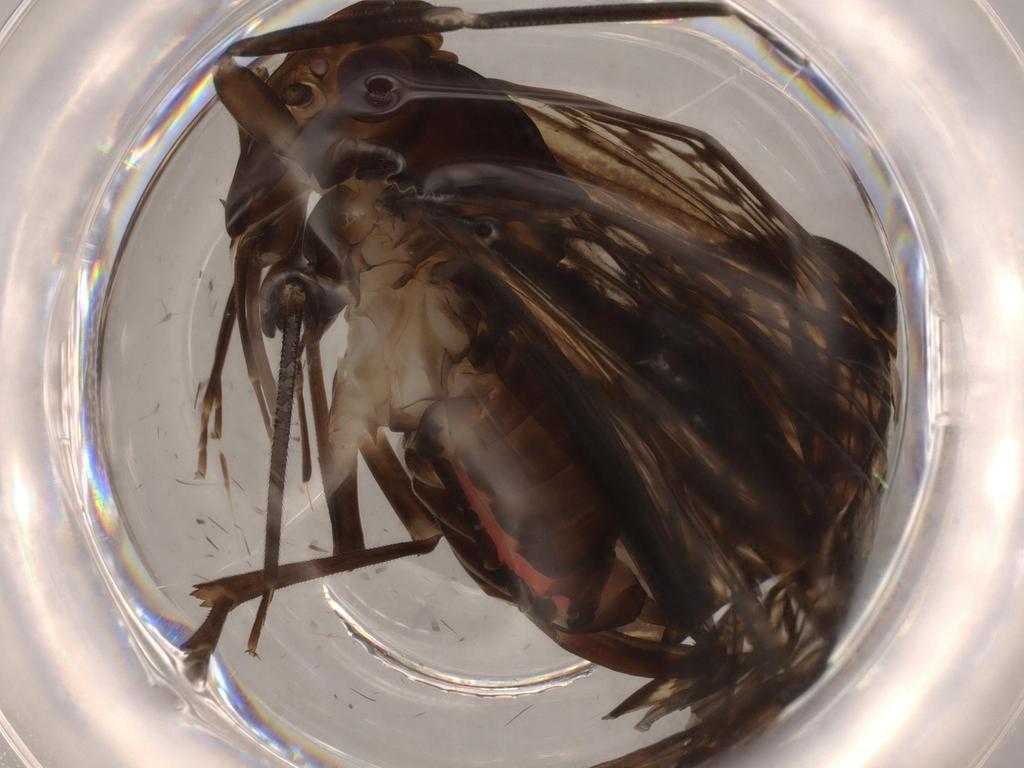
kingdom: Animalia
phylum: Arthropoda
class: Insecta
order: Hemiptera
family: Cixiidae
